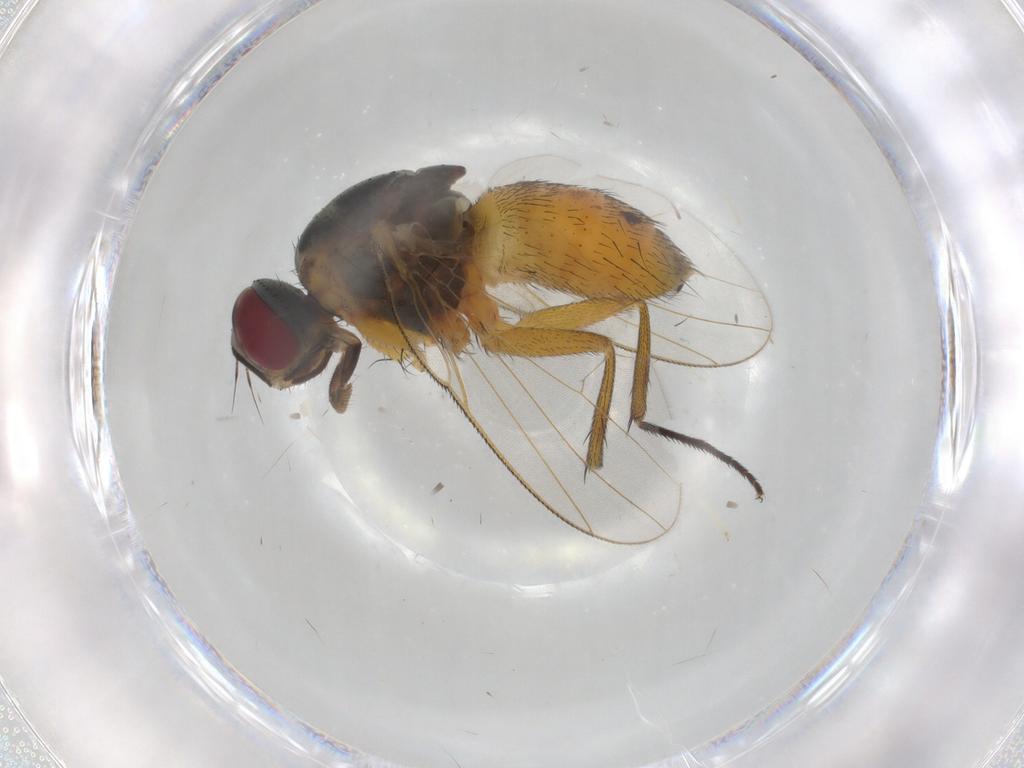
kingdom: Animalia
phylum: Arthropoda
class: Insecta
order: Diptera
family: Muscidae
